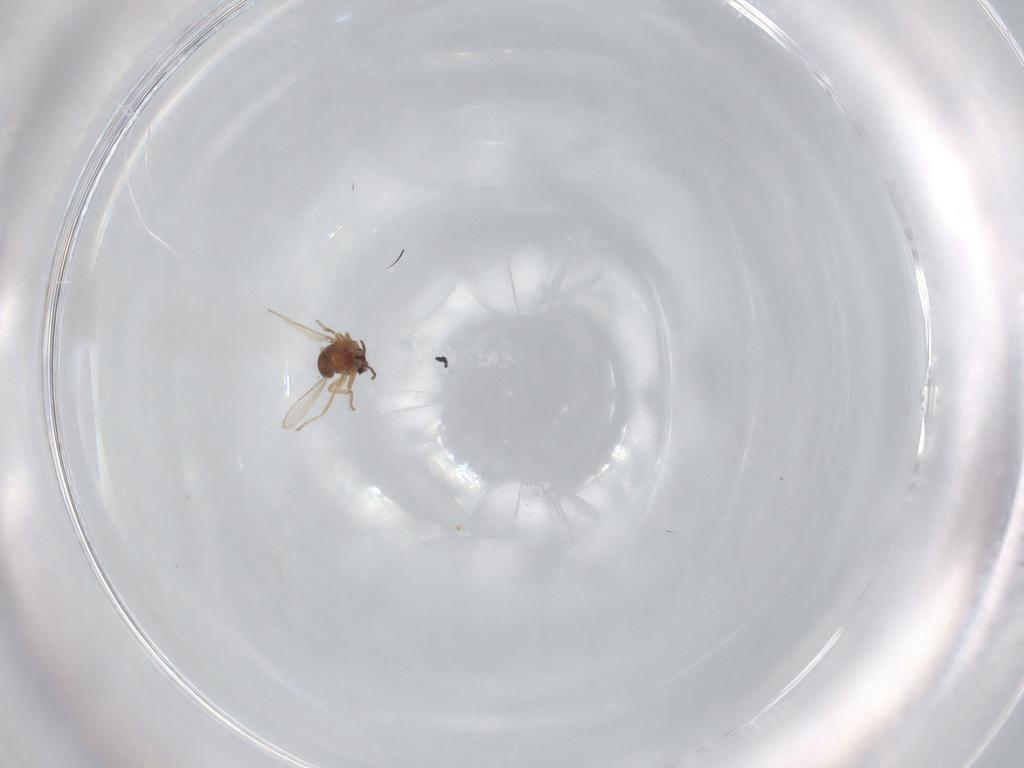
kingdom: Animalia
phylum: Arthropoda
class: Insecta
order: Diptera
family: Ceratopogonidae
